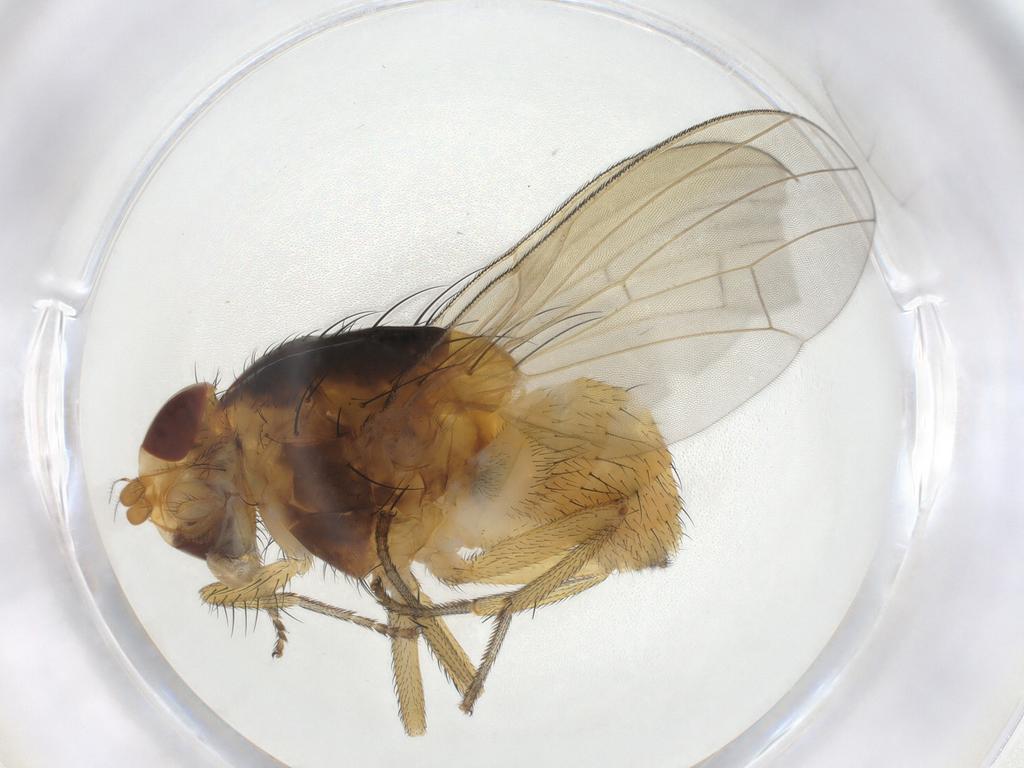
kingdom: Animalia
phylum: Arthropoda
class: Insecta
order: Diptera
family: Lauxaniidae
